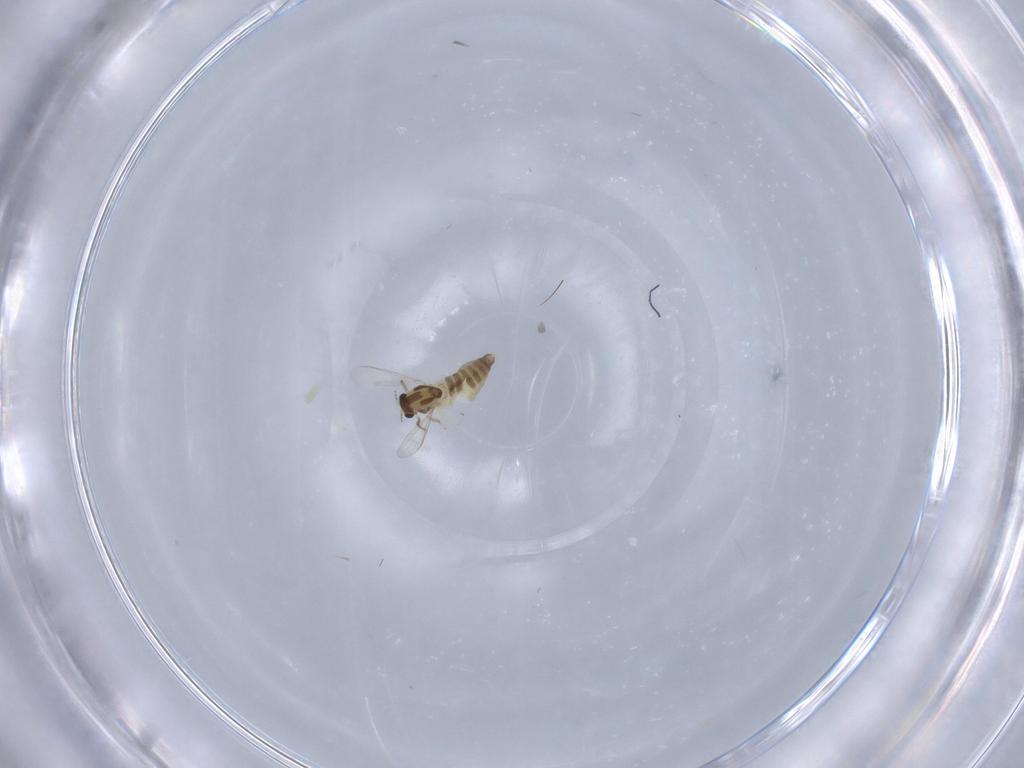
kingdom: Animalia
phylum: Arthropoda
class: Insecta
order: Diptera
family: Chironomidae
